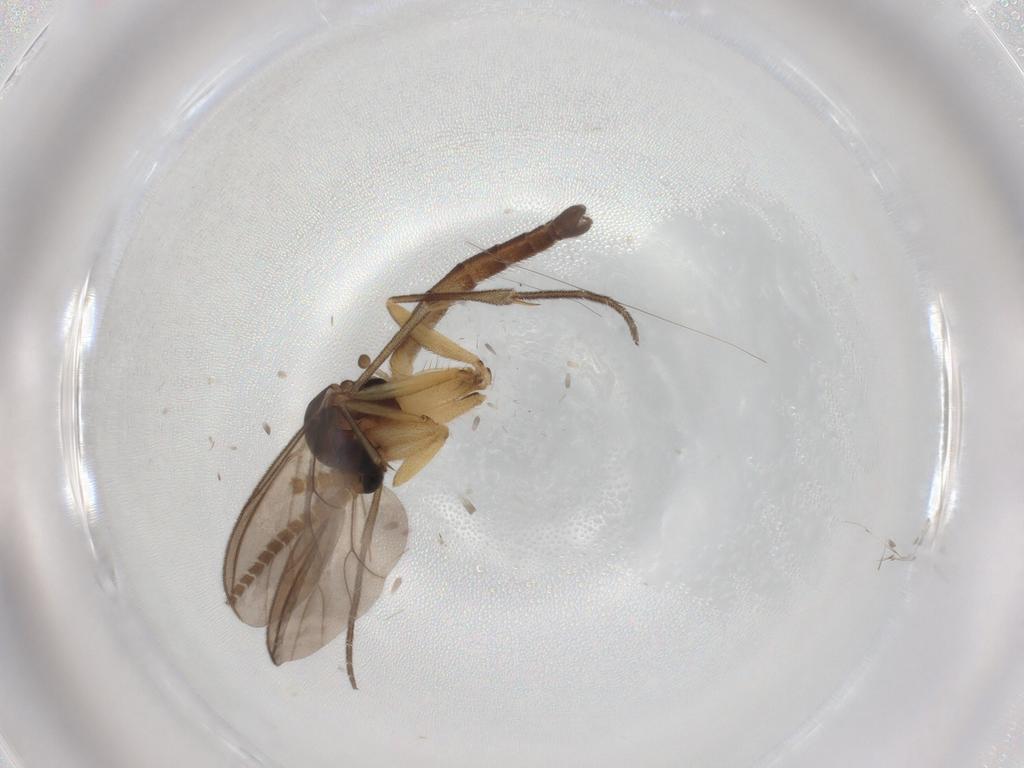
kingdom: Animalia
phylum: Arthropoda
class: Insecta
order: Diptera
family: Mycetophilidae
